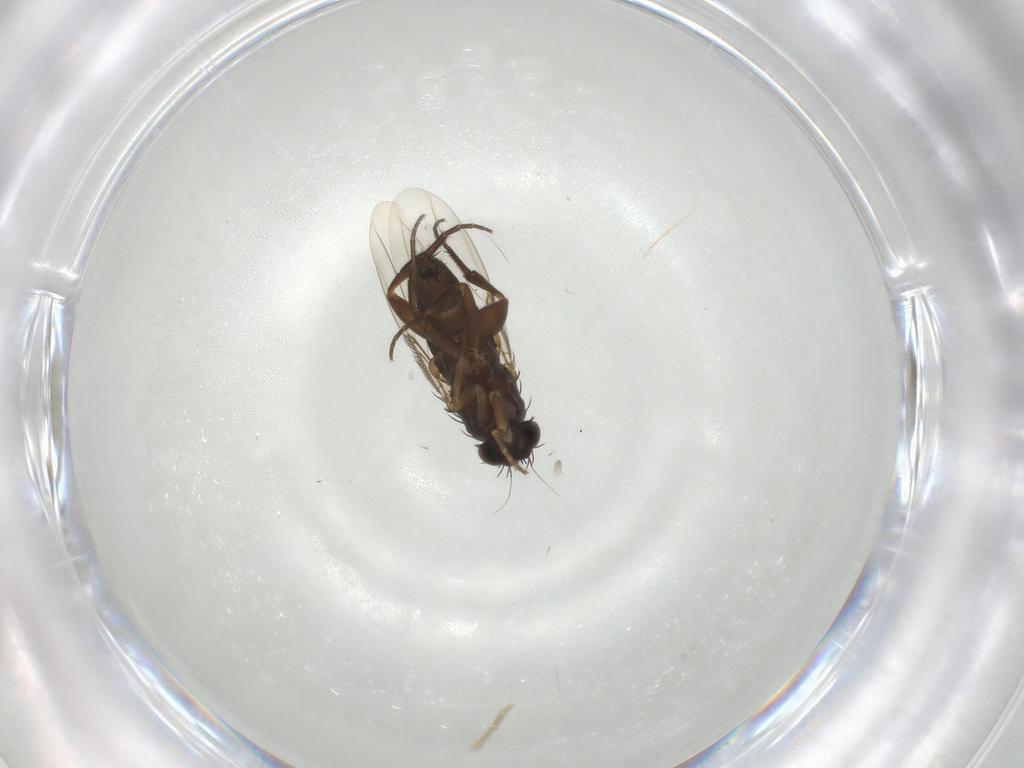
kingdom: Animalia
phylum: Arthropoda
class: Insecta
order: Diptera
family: Phoridae
